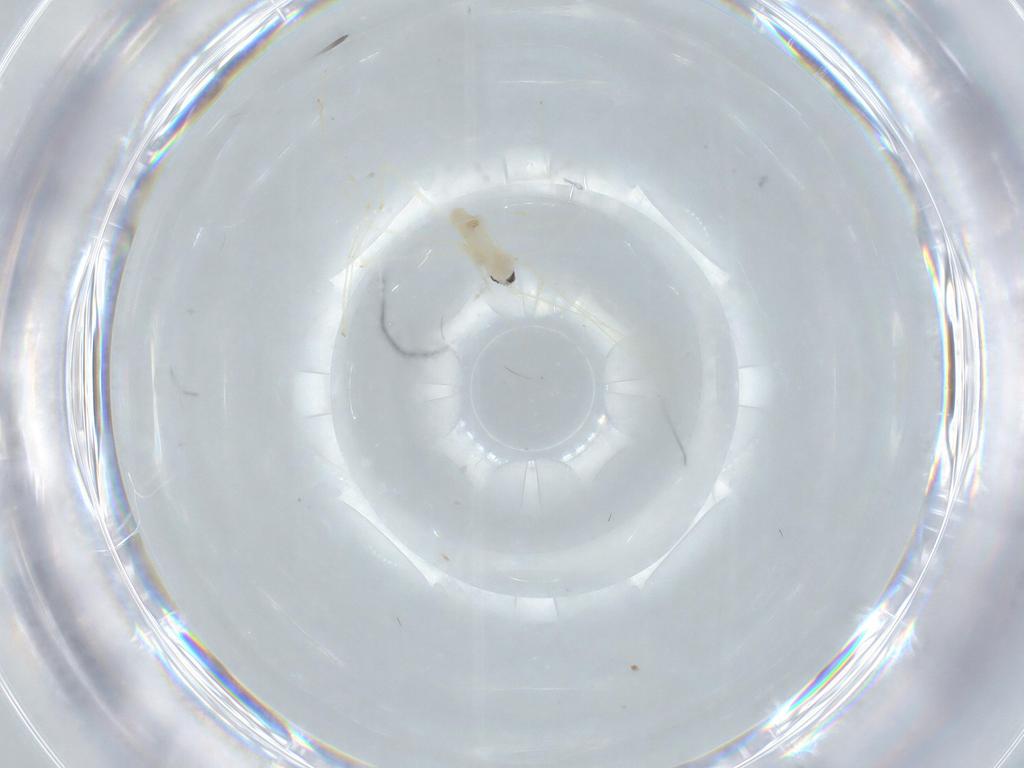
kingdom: Animalia
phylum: Arthropoda
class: Insecta
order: Diptera
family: Cecidomyiidae
